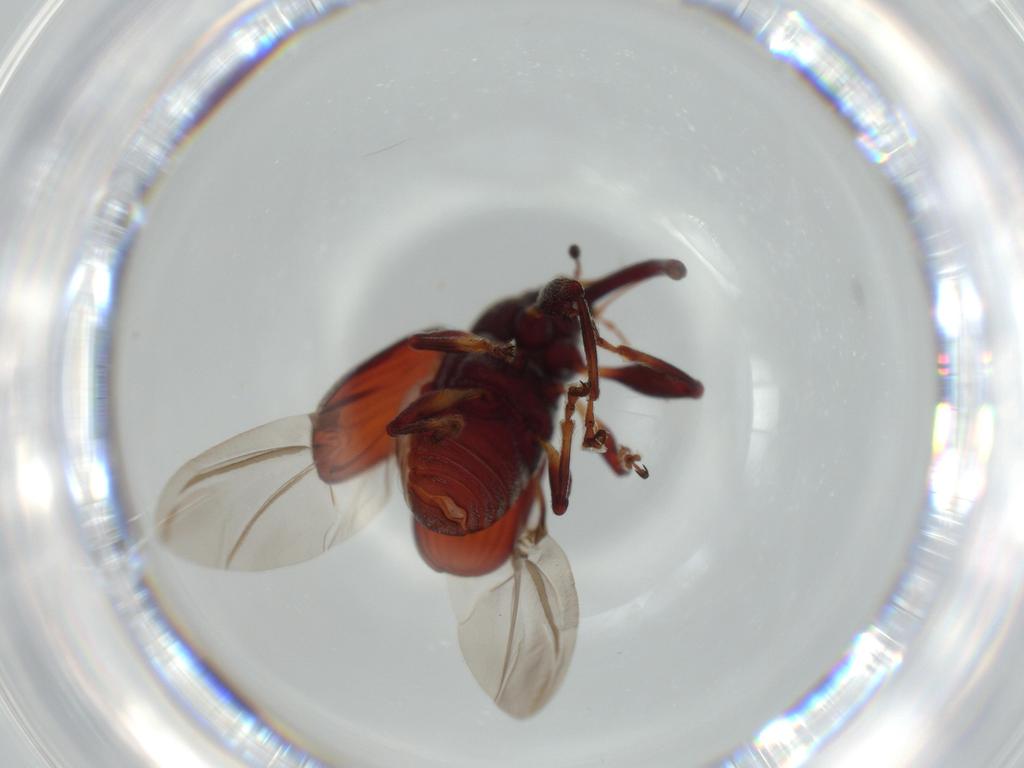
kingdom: Animalia
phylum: Arthropoda
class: Insecta
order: Coleoptera
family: Curculionidae
